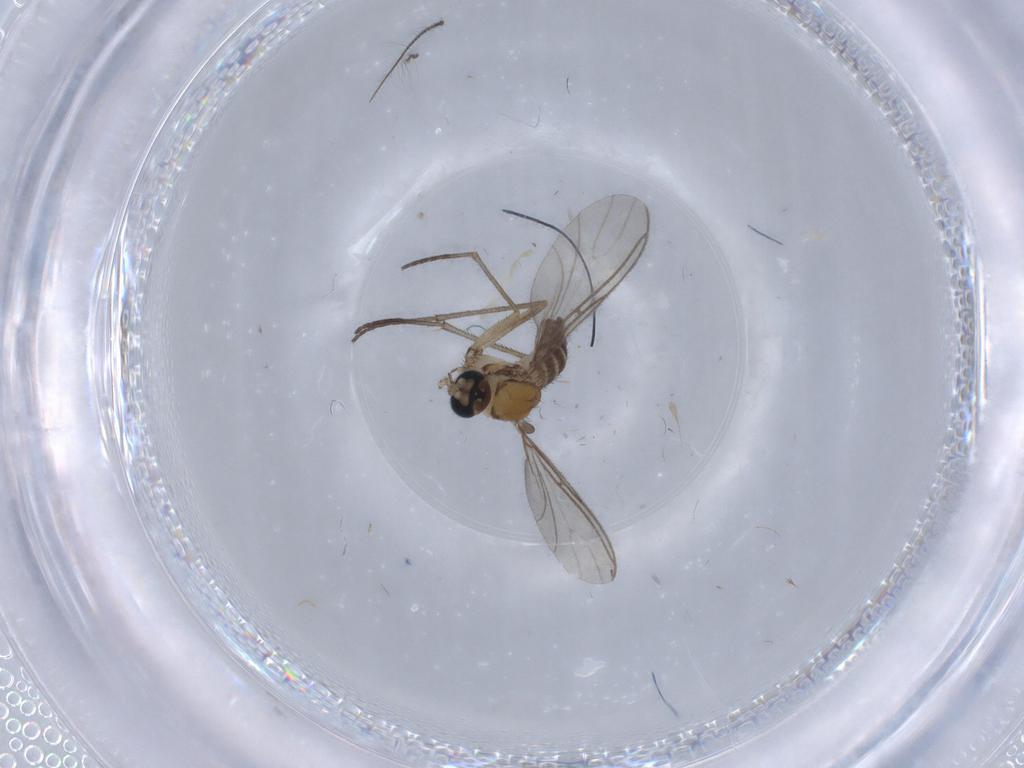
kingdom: Animalia
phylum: Arthropoda
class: Insecta
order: Diptera
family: Sciaridae
